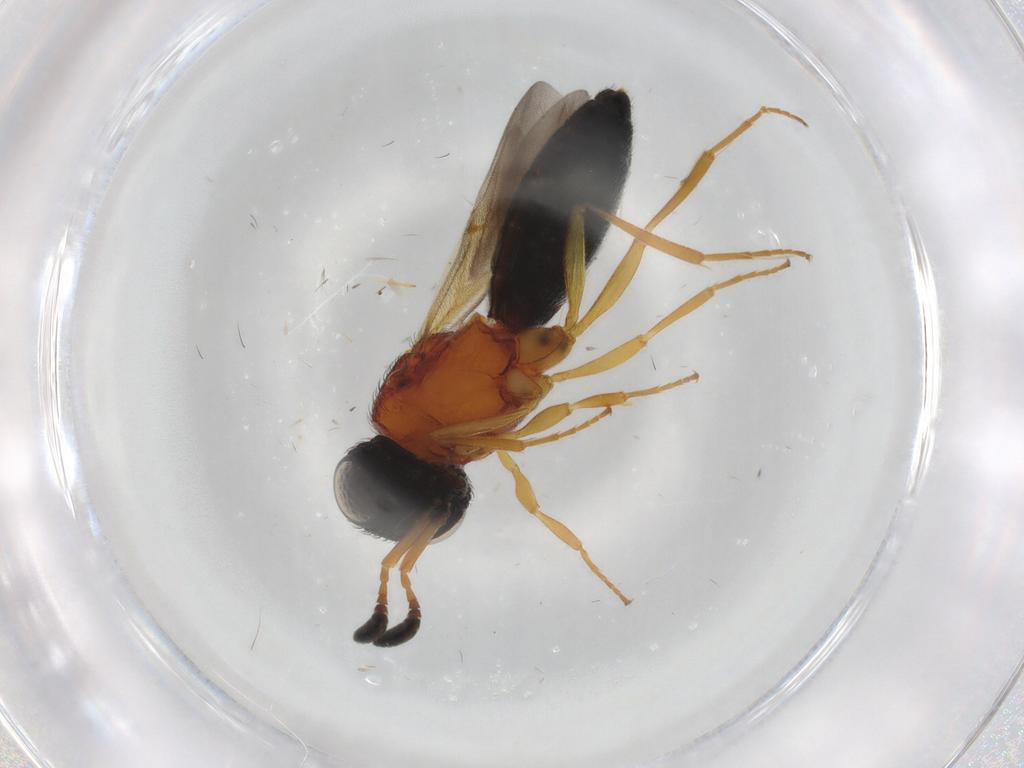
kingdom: Animalia
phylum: Arthropoda
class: Insecta
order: Hymenoptera
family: Scelionidae
